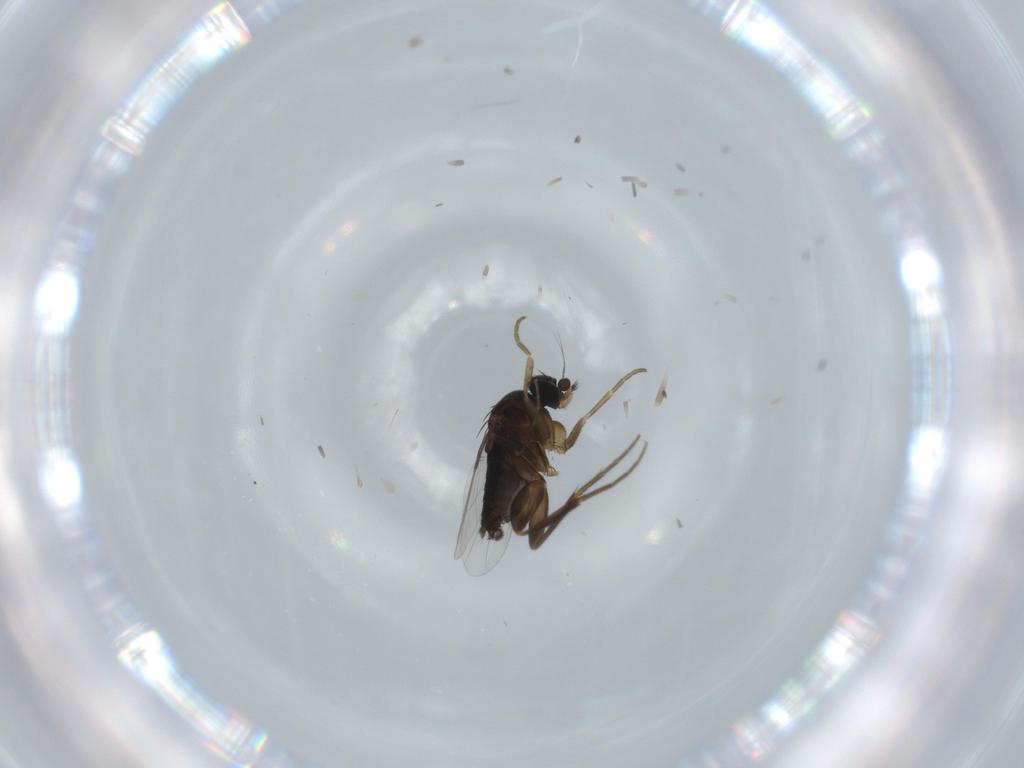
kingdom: Animalia
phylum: Arthropoda
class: Insecta
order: Diptera
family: Phoridae
